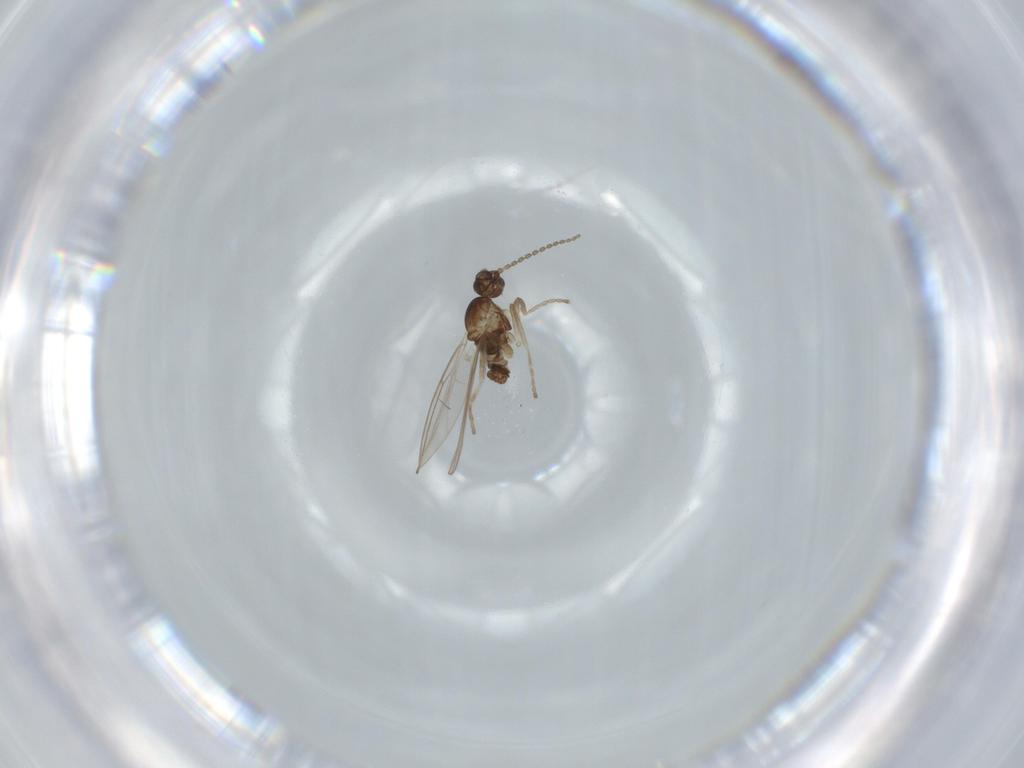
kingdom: Animalia
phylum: Arthropoda
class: Insecta
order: Diptera
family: Cecidomyiidae
